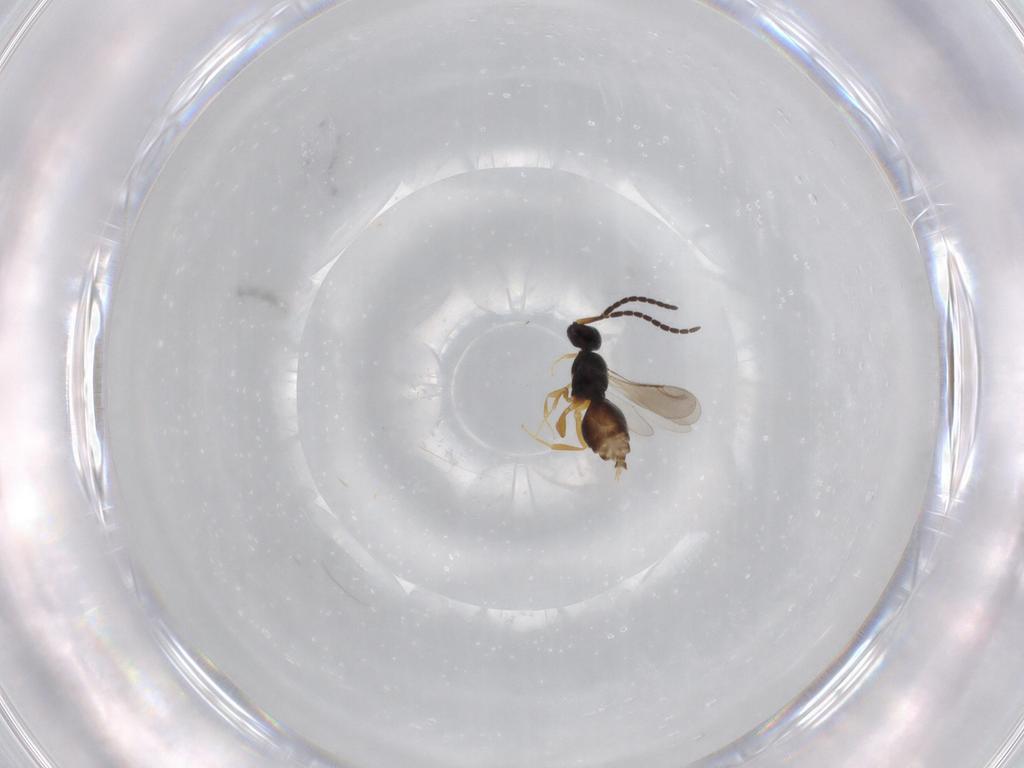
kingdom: Animalia
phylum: Arthropoda
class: Insecta
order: Hymenoptera
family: Trichogrammatidae
